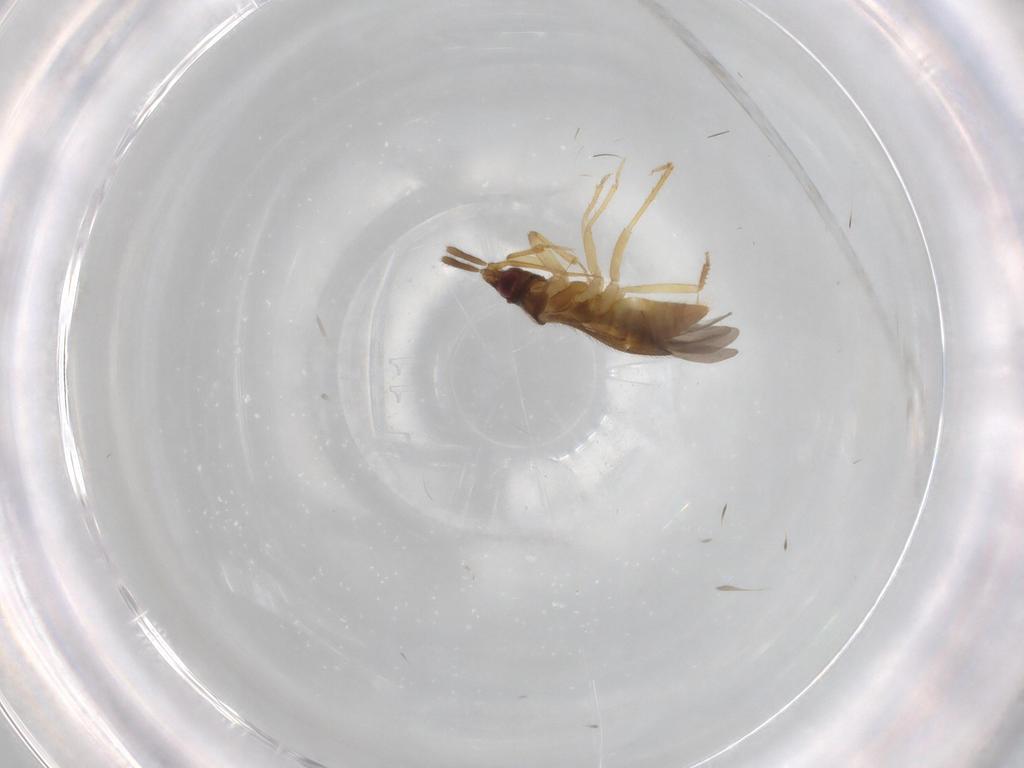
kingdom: Animalia
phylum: Arthropoda
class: Insecta
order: Hemiptera
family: Lasiochilidae
